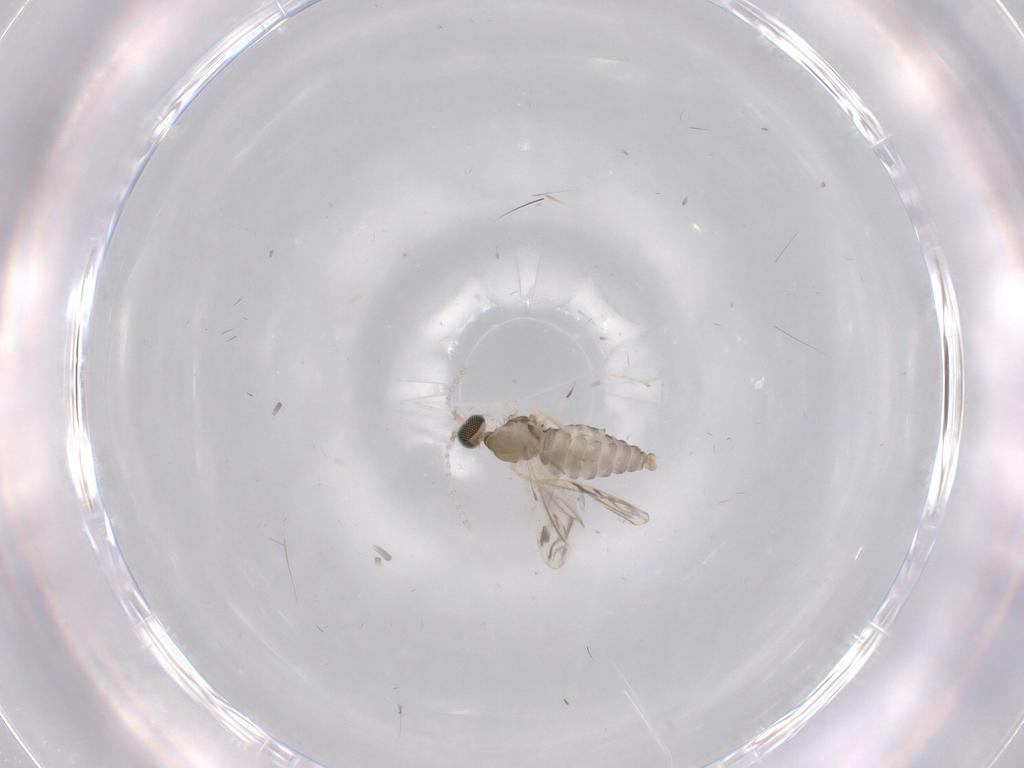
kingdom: Animalia
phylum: Arthropoda
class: Insecta
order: Diptera
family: Cecidomyiidae
